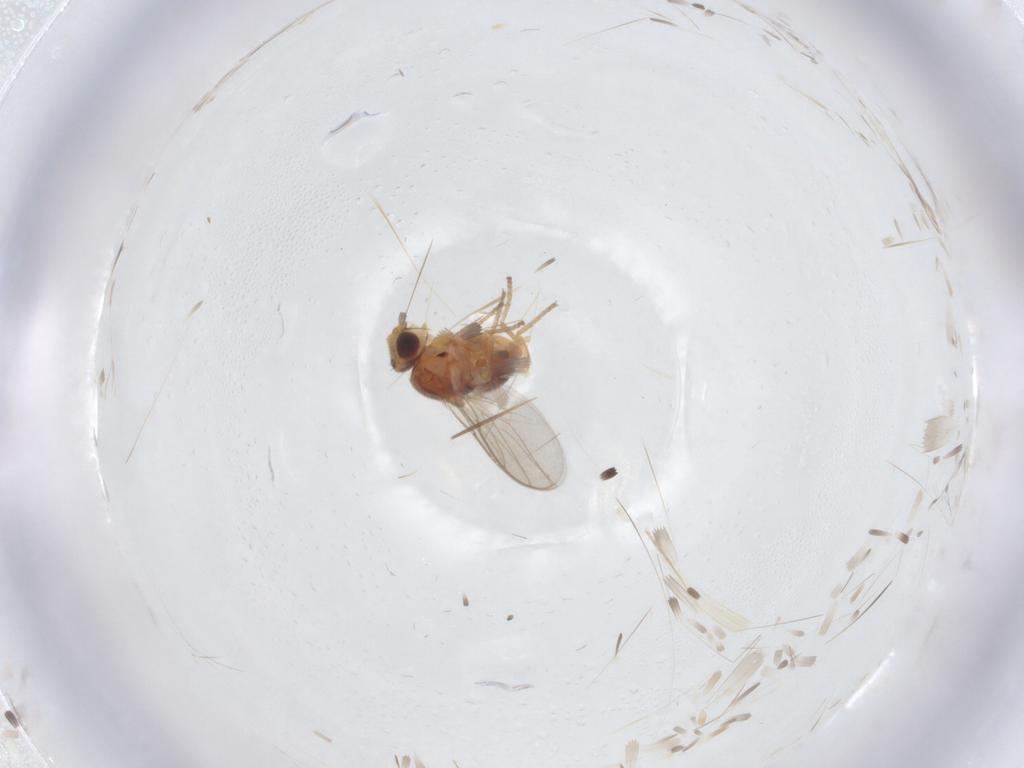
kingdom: Animalia
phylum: Arthropoda
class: Insecta
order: Diptera
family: Chloropidae
